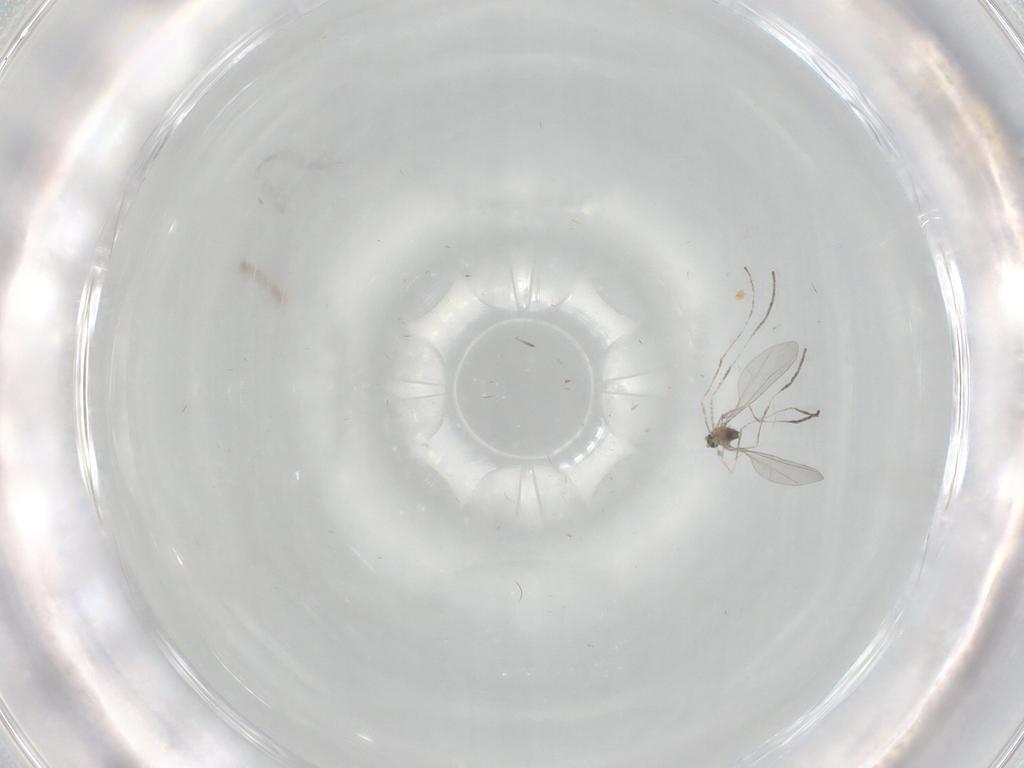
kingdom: Animalia
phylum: Arthropoda
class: Insecta
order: Diptera
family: Cecidomyiidae
